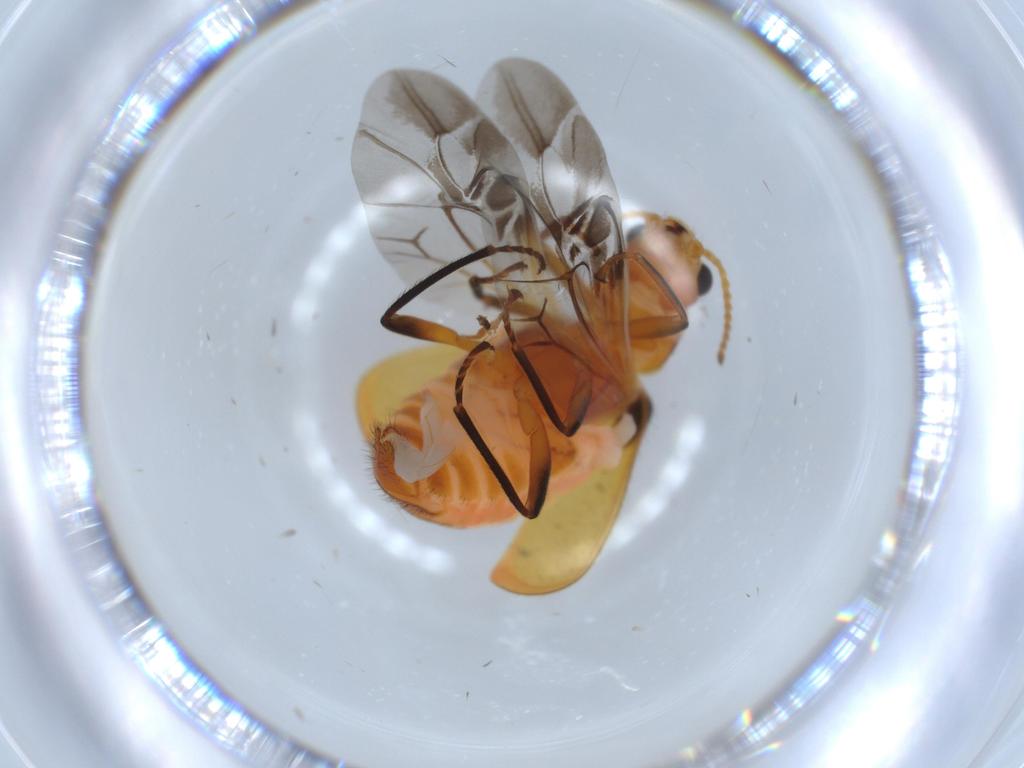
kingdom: Animalia
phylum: Arthropoda
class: Insecta
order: Coleoptera
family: Melyridae
